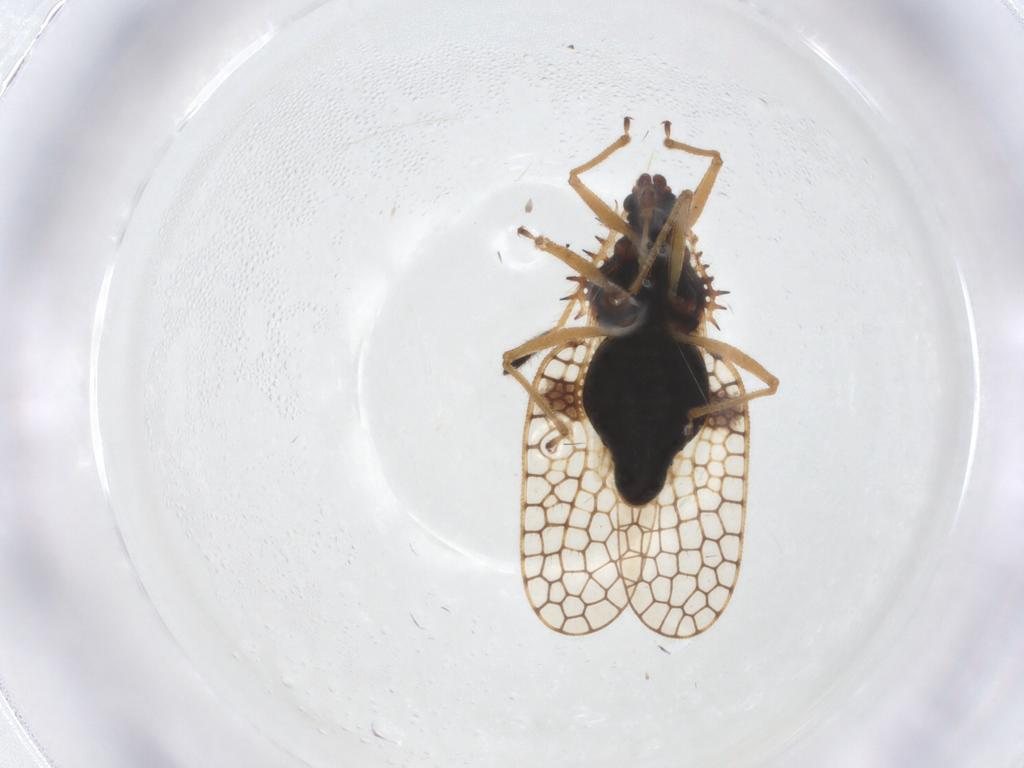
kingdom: Animalia
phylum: Arthropoda
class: Insecta
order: Hemiptera
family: Tingidae
